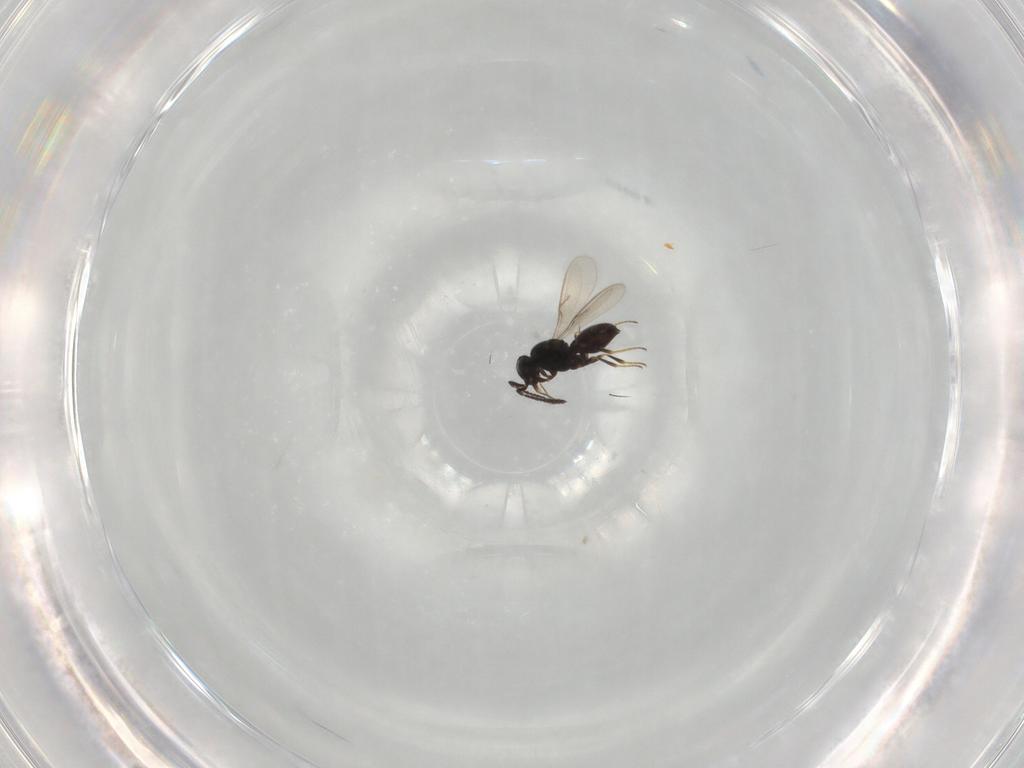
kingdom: Animalia
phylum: Arthropoda
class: Insecta
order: Hymenoptera
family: Scelionidae
